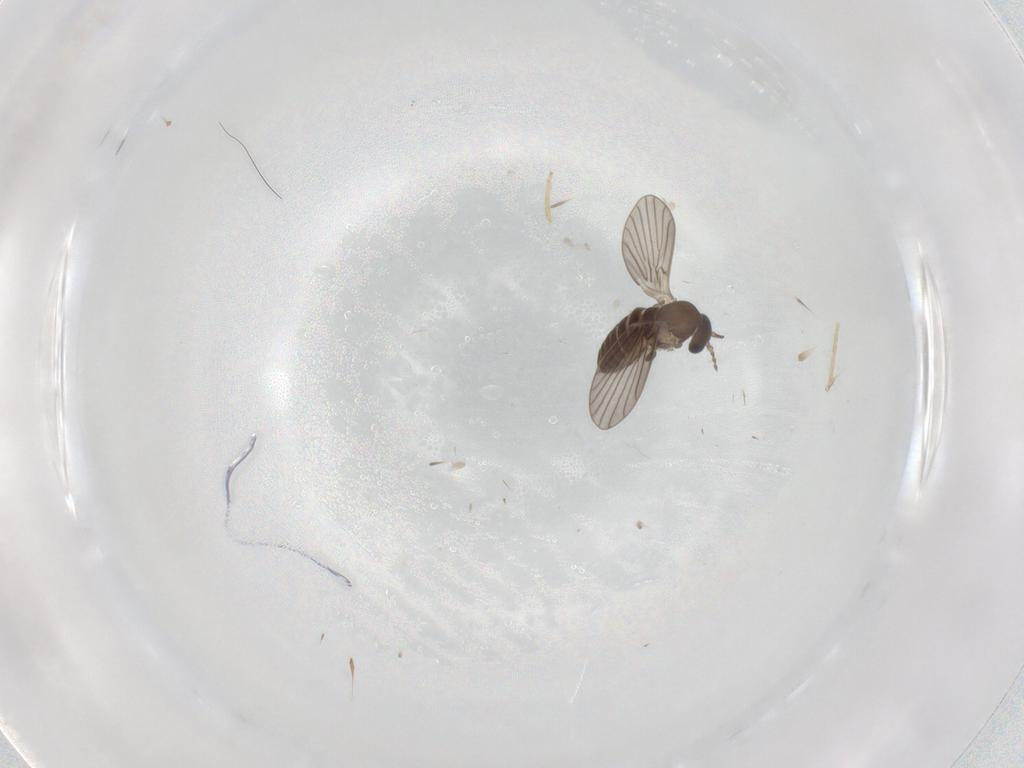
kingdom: Animalia
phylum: Arthropoda
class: Insecta
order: Diptera
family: Chironomidae
